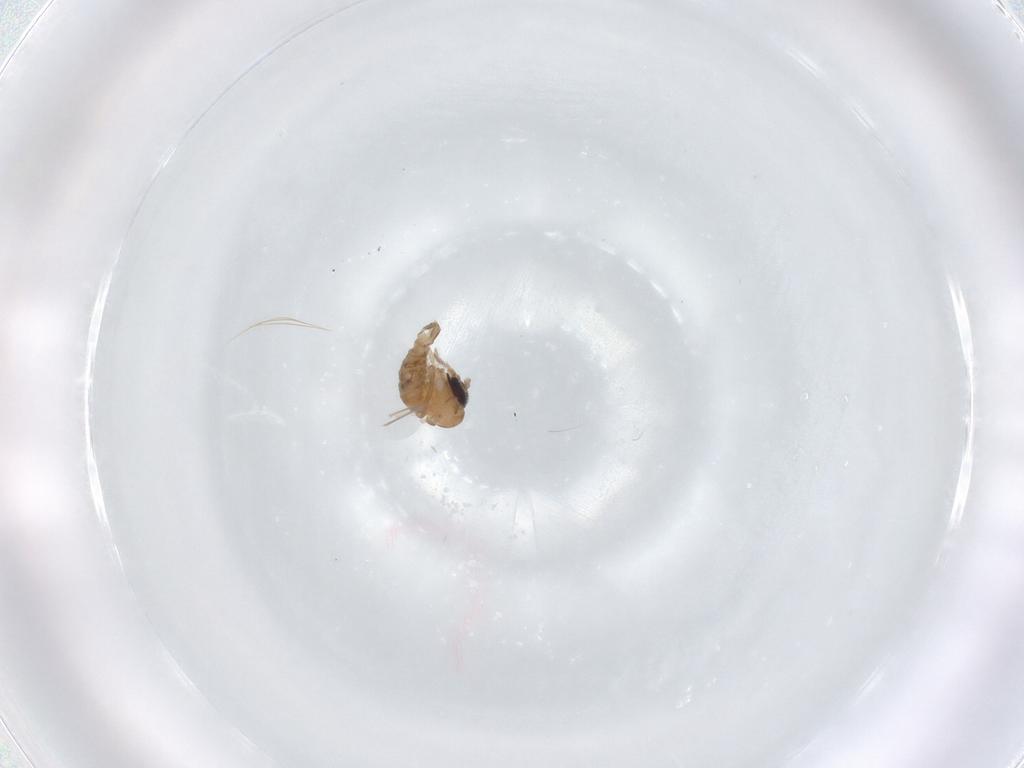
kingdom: Animalia
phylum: Arthropoda
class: Insecta
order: Diptera
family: Psychodidae
